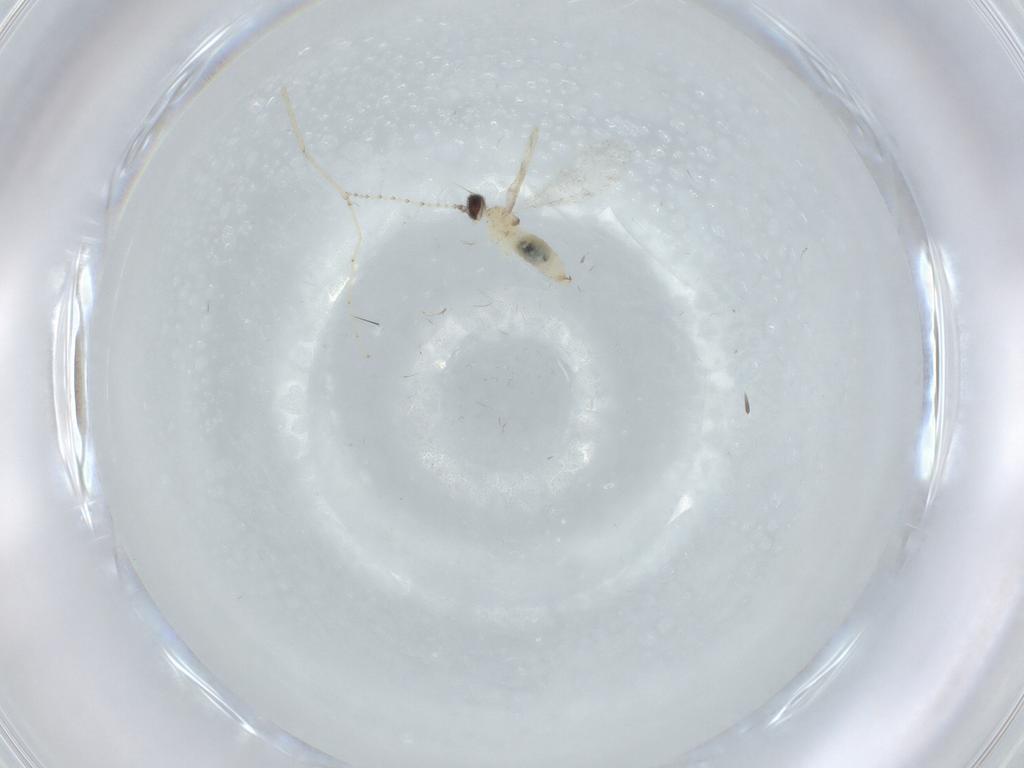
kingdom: Animalia
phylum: Arthropoda
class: Insecta
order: Diptera
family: Cecidomyiidae
